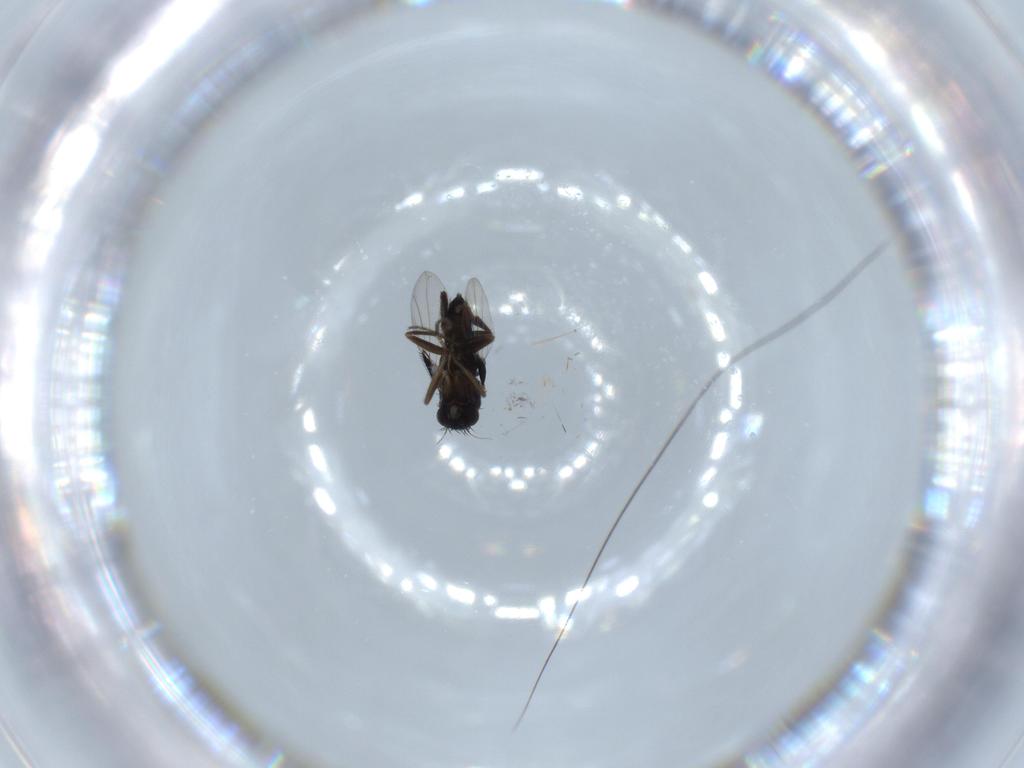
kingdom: Animalia
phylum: Arthropoda
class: Insecta
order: Diptera
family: Phoridae
